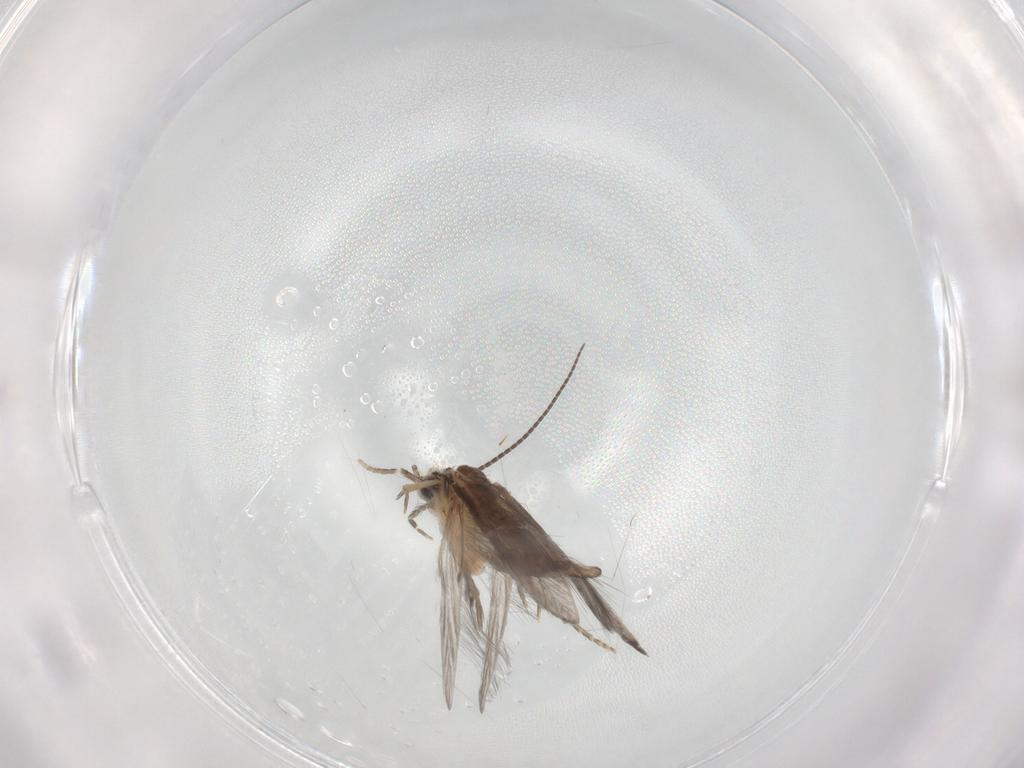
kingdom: Animalia
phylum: Arthropoda
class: Insecta
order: Trichoptera
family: Hydroptilidae
